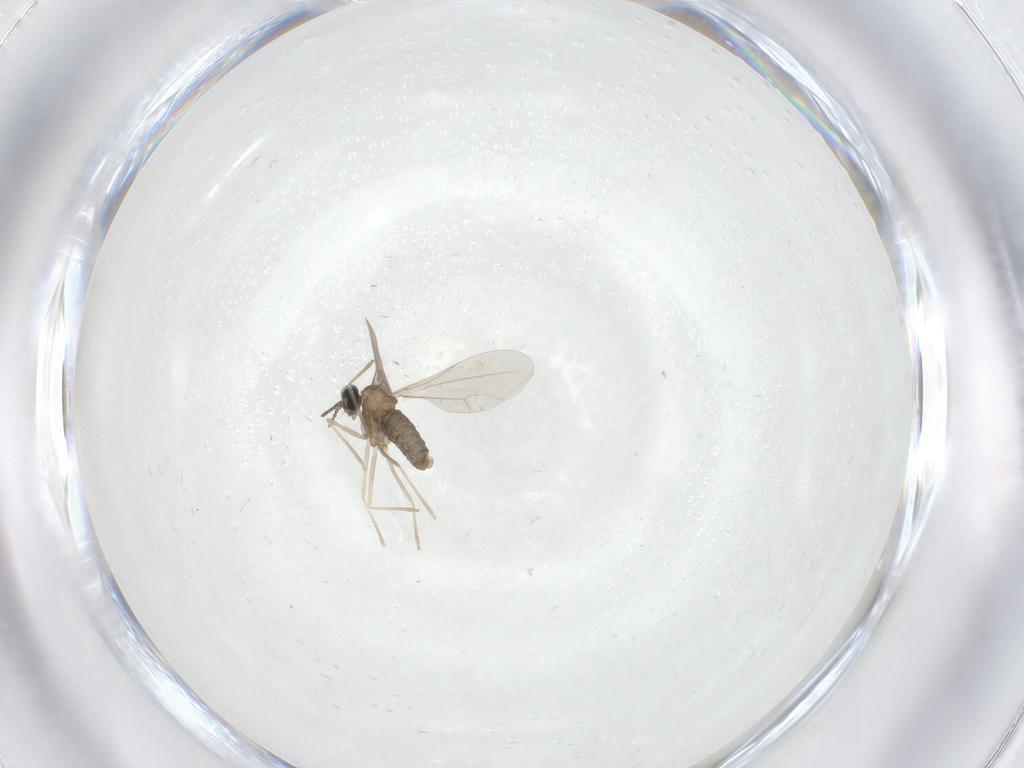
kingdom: Animalia
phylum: Arthropoda
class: Insecta
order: Diptera
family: Cecidomyiidae
